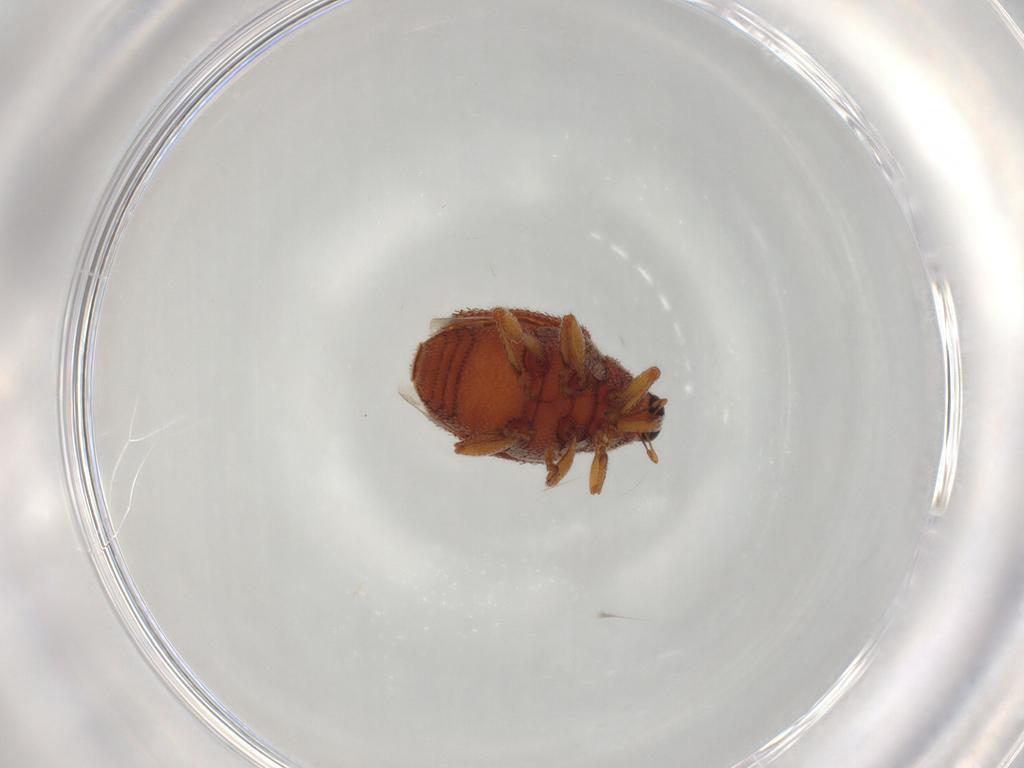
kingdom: Animalia
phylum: Arthropoda
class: Insecta
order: Coleoptera
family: Curculionidae
